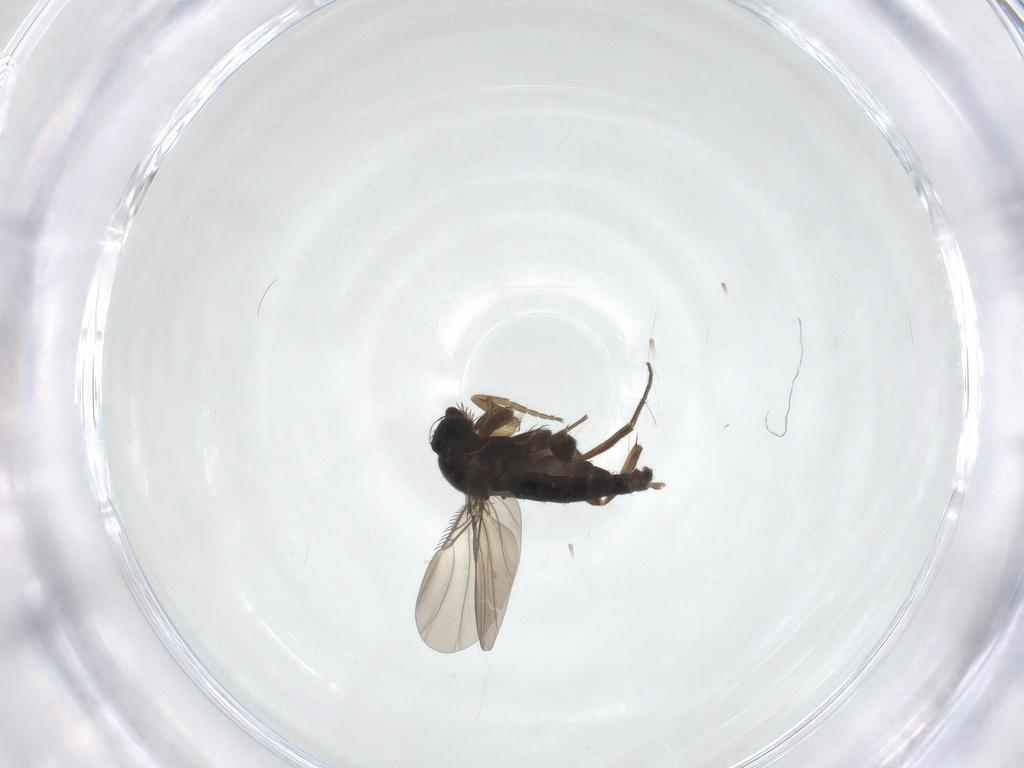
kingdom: Animalia
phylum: Arthropoda
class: Insecta
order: Diptera
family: Phoridae
